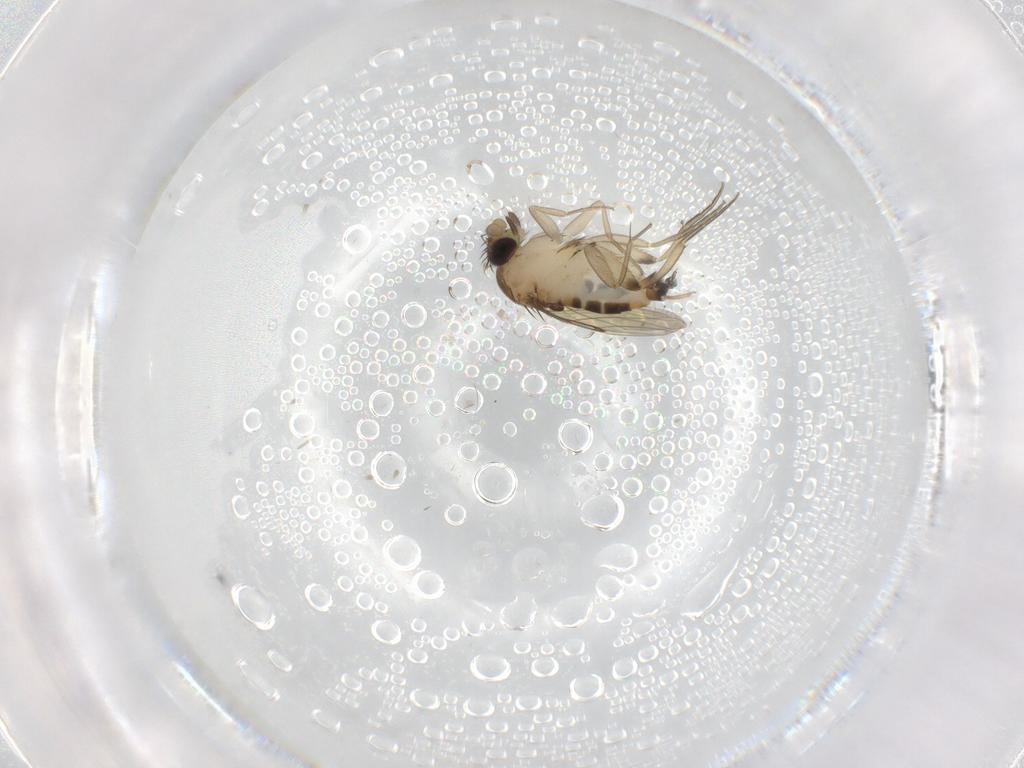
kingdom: Animalia
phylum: Arthropoda
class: Insecta
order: Diptera
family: Phoridae
